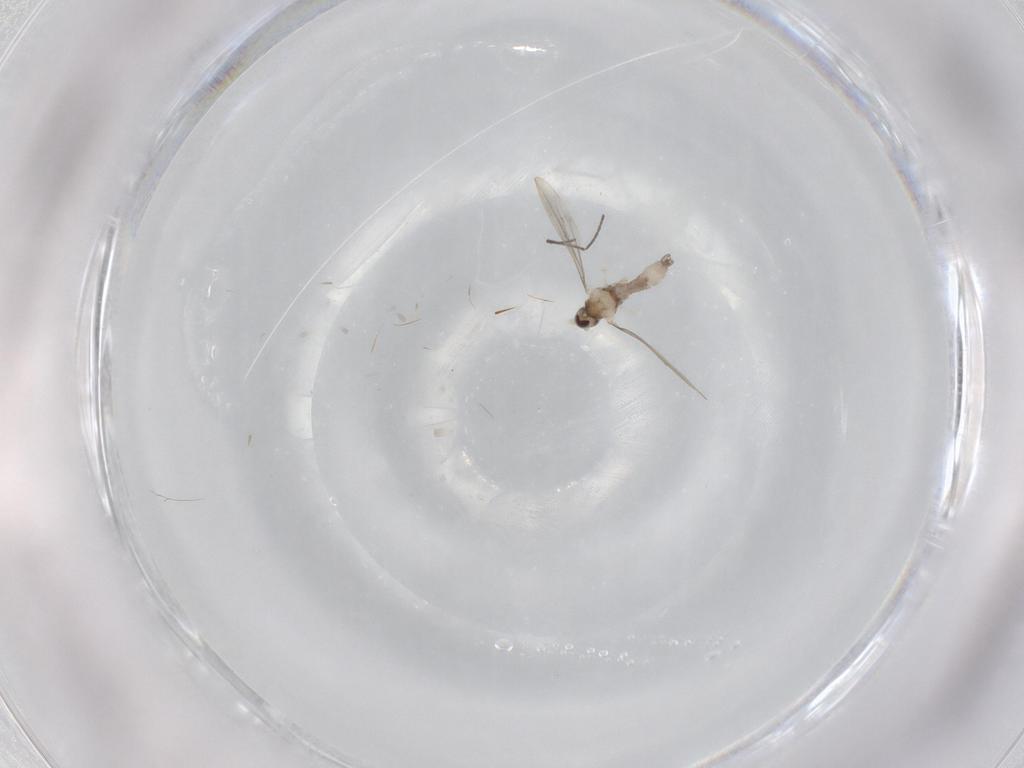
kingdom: Animalia
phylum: Arthropoda
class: Insecta
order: Diptera
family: Cecidomyiidae
